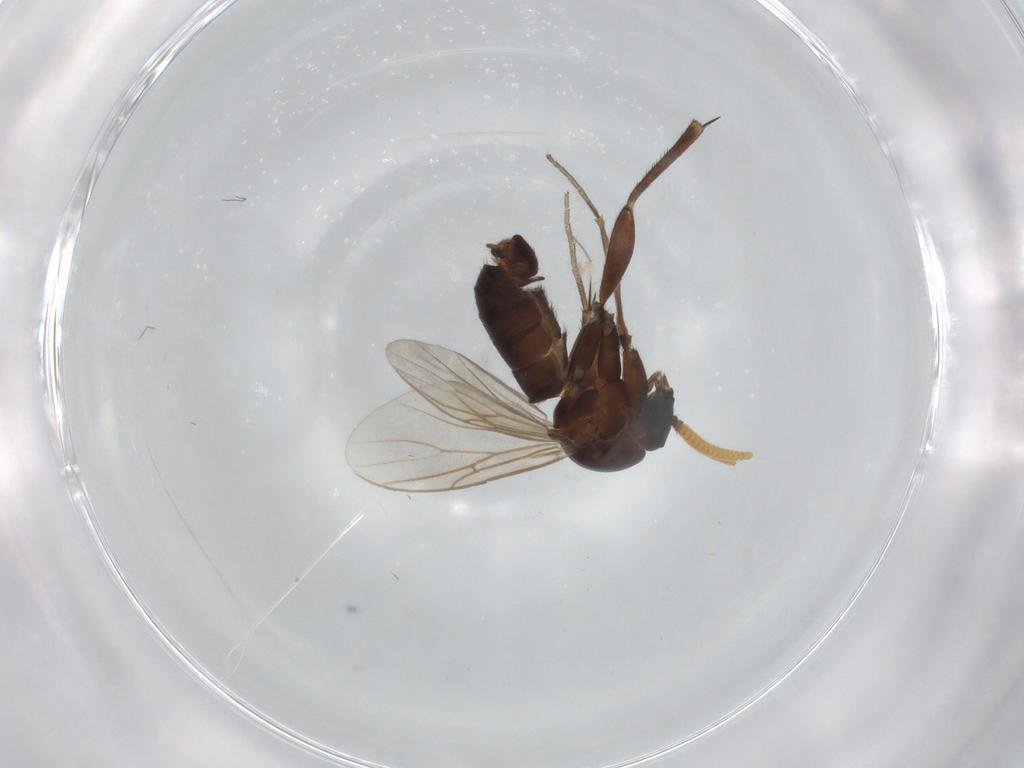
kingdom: Animalia
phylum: Arthropoda
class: Insecta
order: Diptera
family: Mycetophilidae
